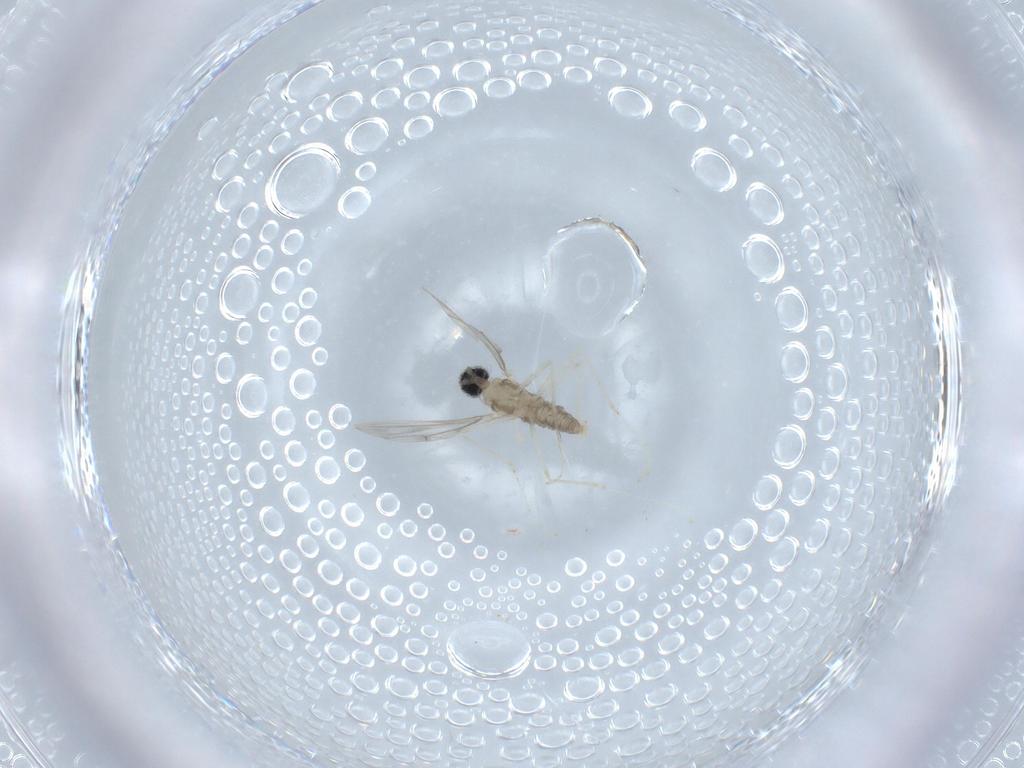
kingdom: Animalia
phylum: Arthropoda
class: Insecta
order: Diptera
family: Cecidomyiidae
